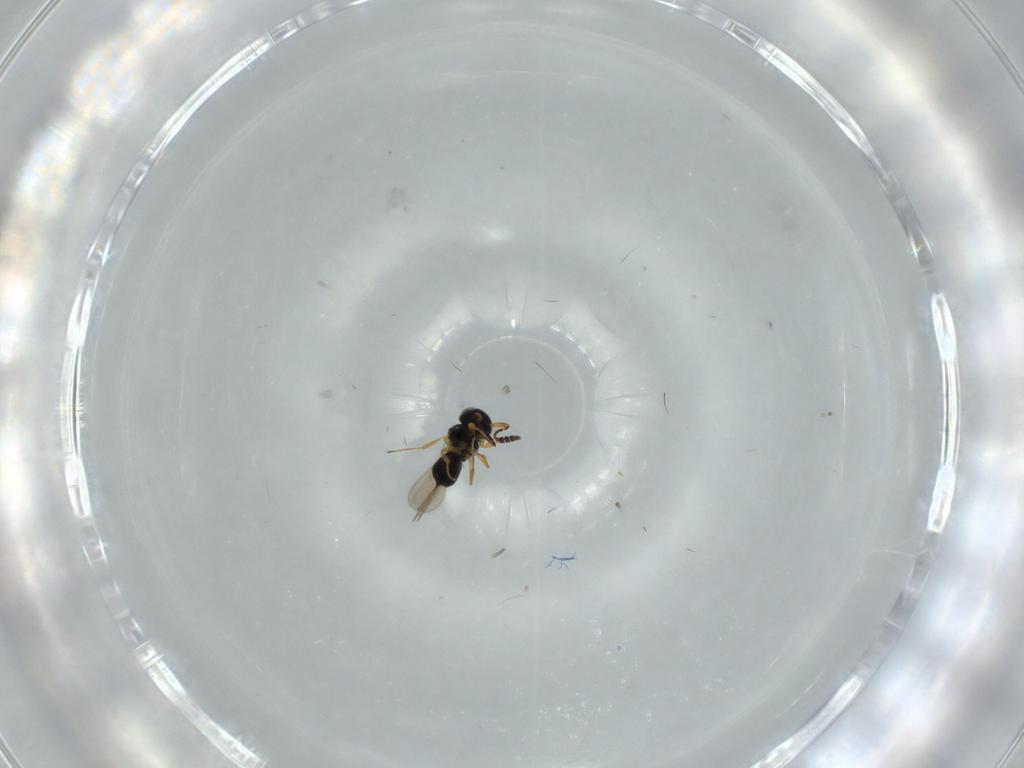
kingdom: Animalia
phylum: Arthropoda
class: Insecta
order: Hymenoptera
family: Scelionidae
